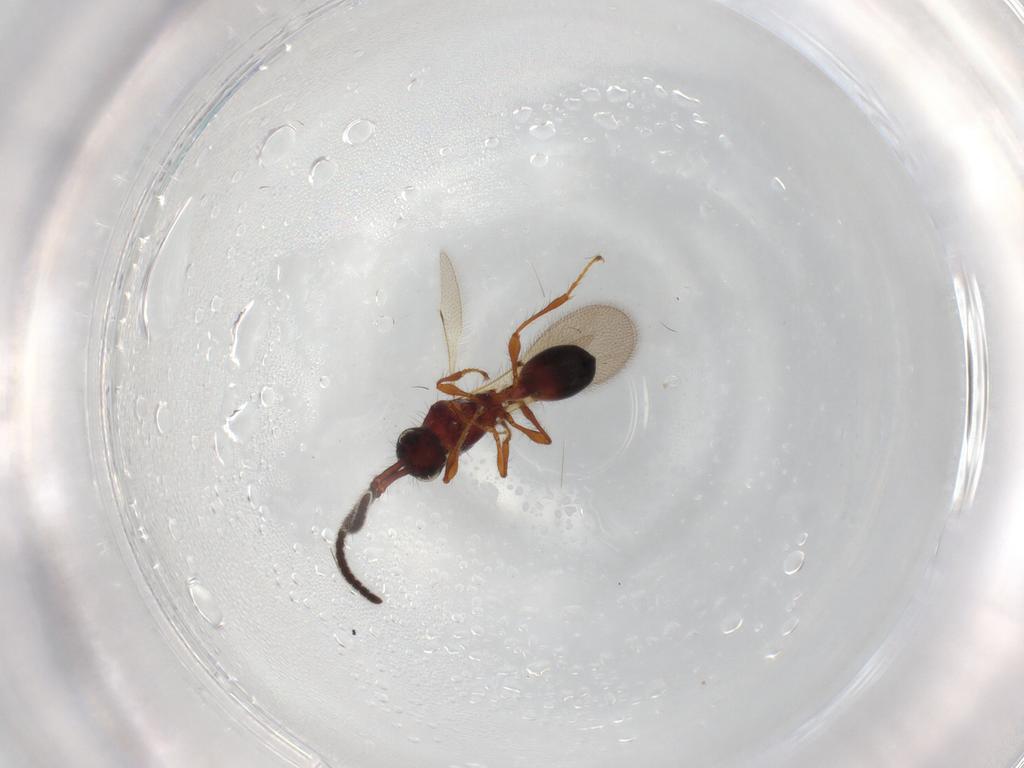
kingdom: Animalia
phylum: Arthropoda
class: Insecta
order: Hymenoptera
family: Diapriidae
